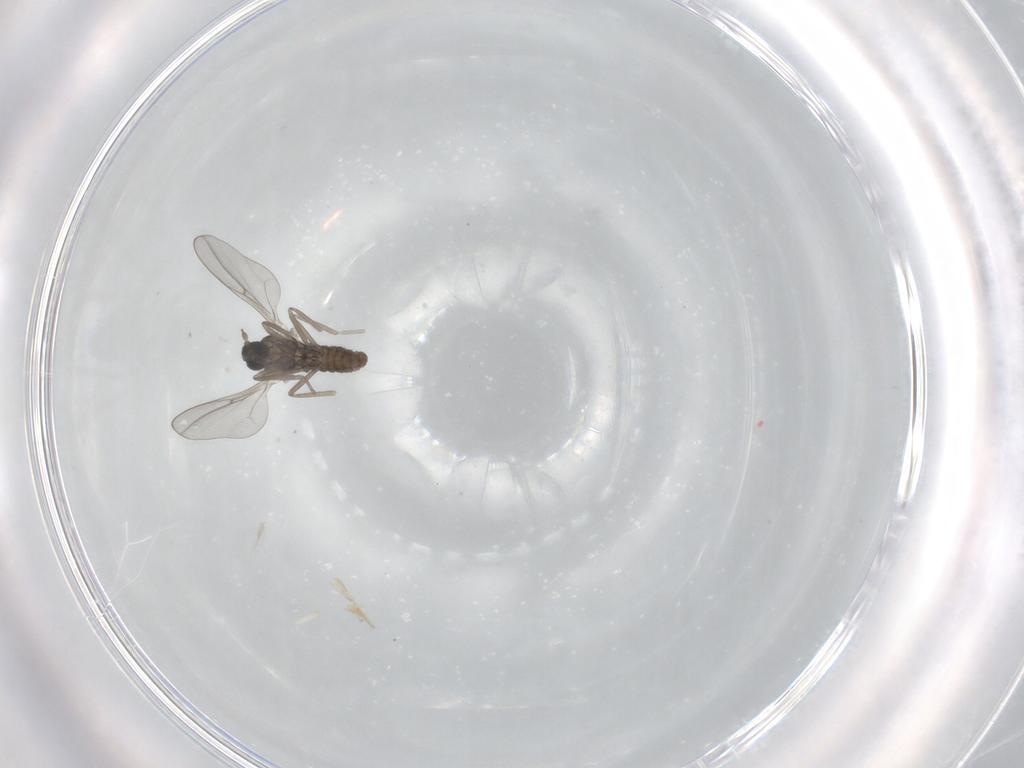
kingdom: Animalia
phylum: Arthropoda
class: Insecta
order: Diptera
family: Cecidomyiidae
